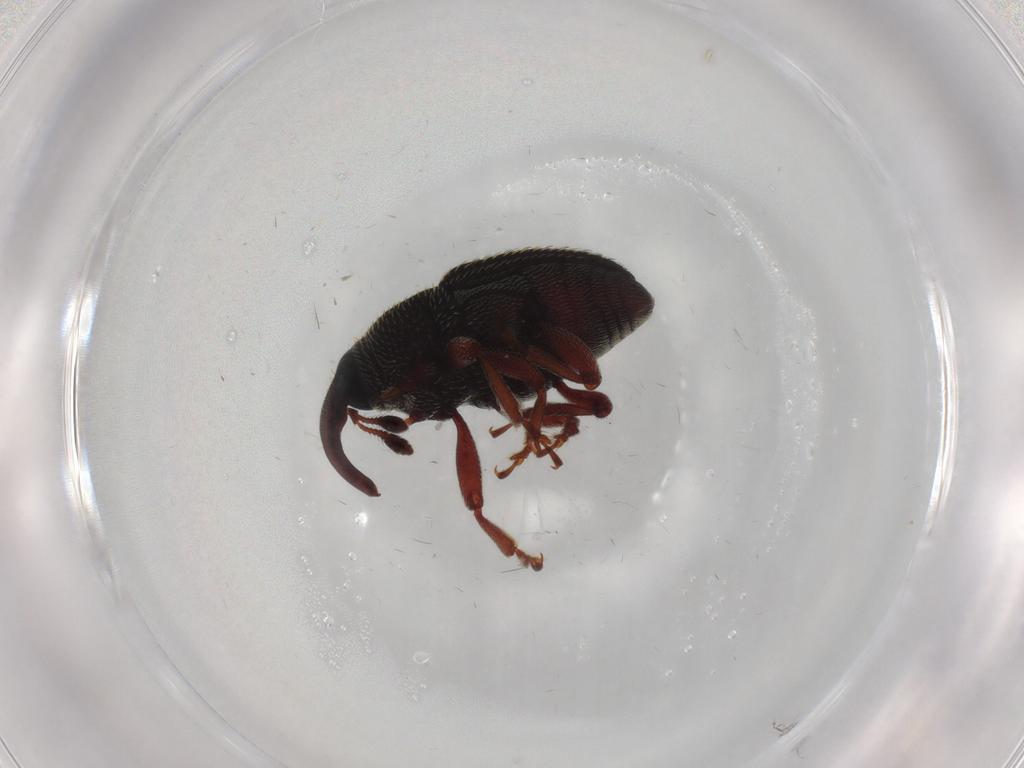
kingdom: Animalia
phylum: Arthropoda
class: Insecta
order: Coleoptera
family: Curculionidae
